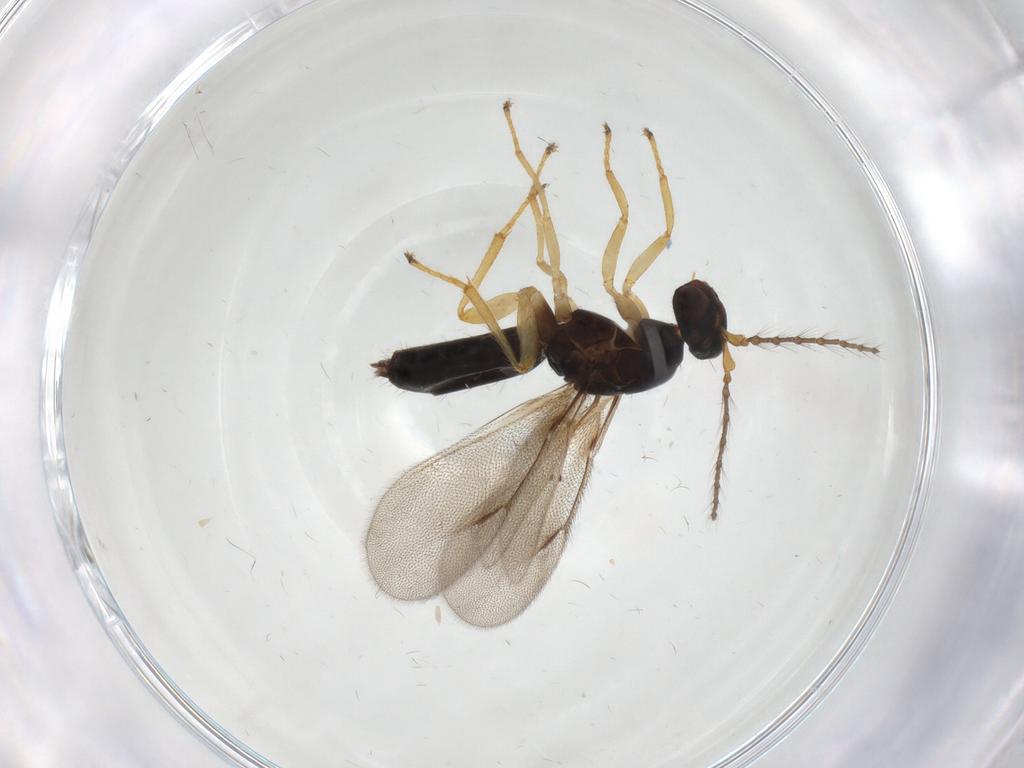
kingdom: Animalia
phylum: Arthropoda
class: Insecta
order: Hymenoptera
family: Eulophidae
